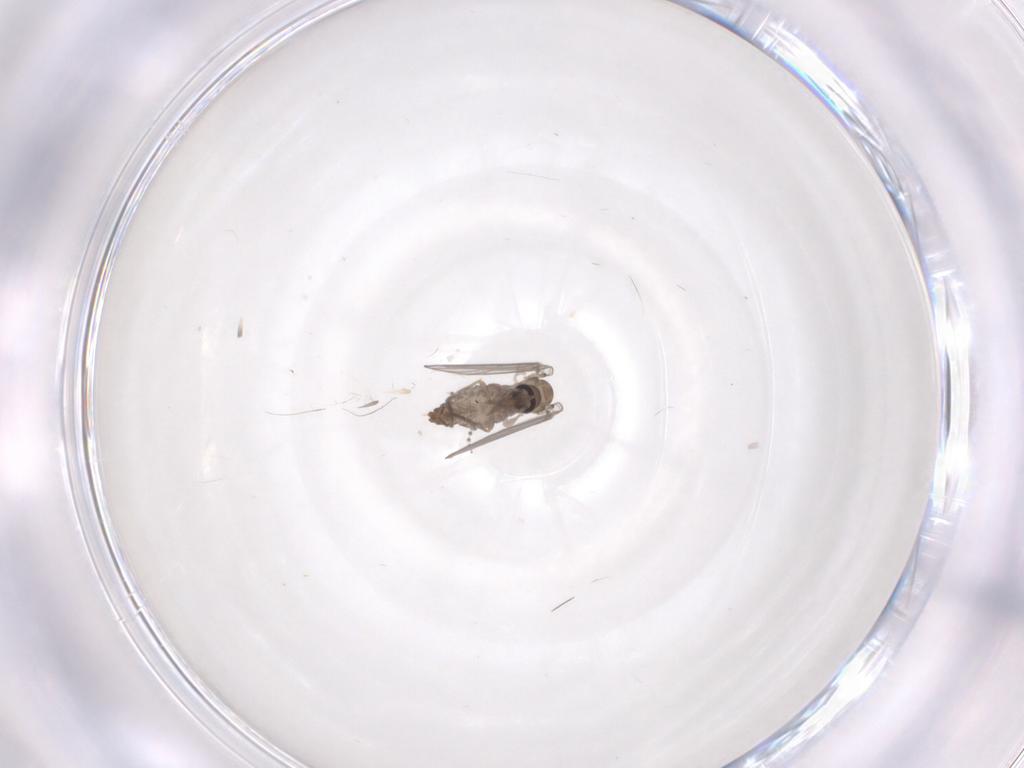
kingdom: Animalia
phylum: Arthropoda
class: Insecta
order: Diptera
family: Psychodidae
